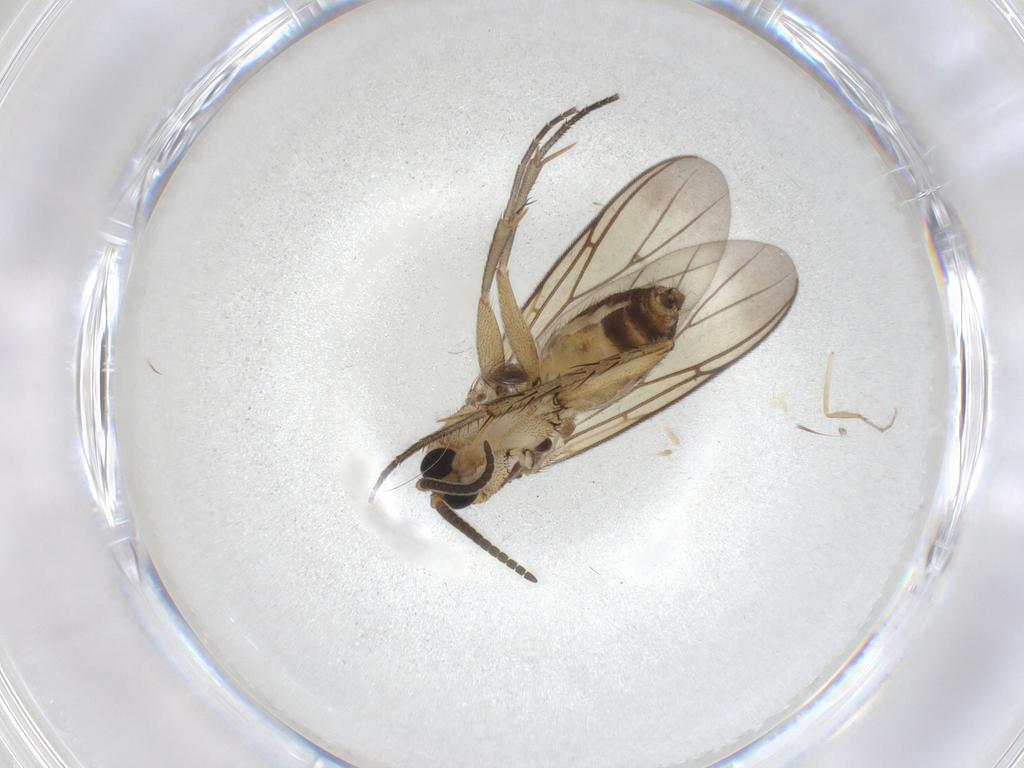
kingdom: Animalia
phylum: Arthropoda
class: Insecta
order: Diptera
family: Mycetophilidae
